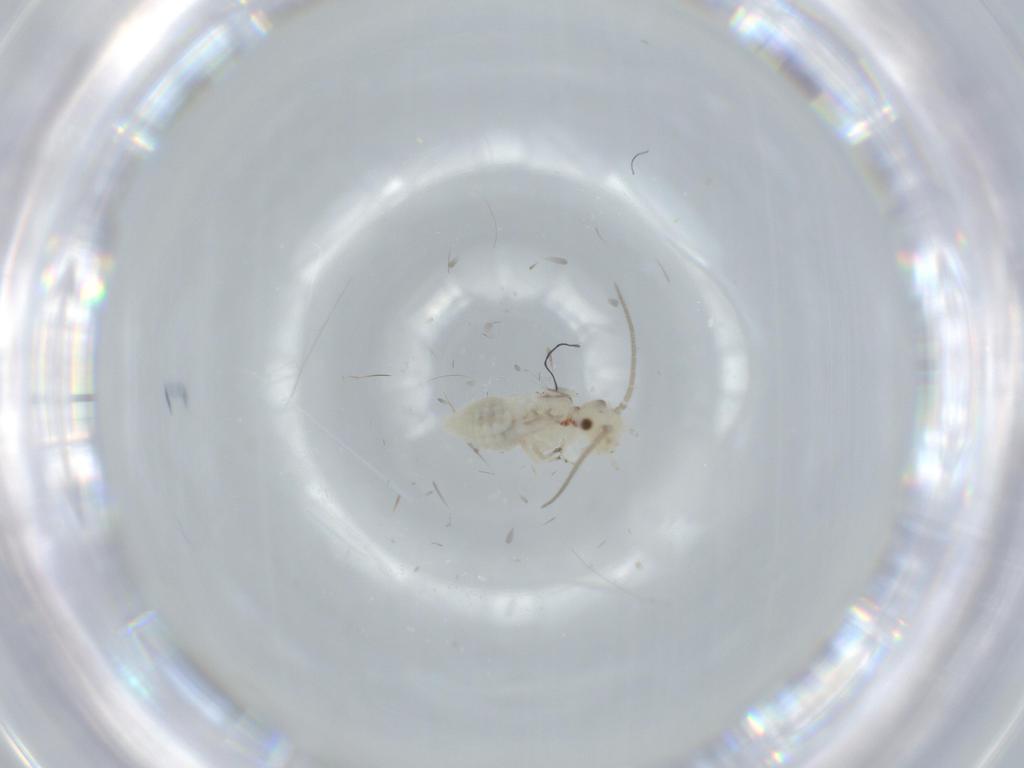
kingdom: Animalia
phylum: Arthropoda
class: Insecta
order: Psocodea
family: Caeciliusidae
